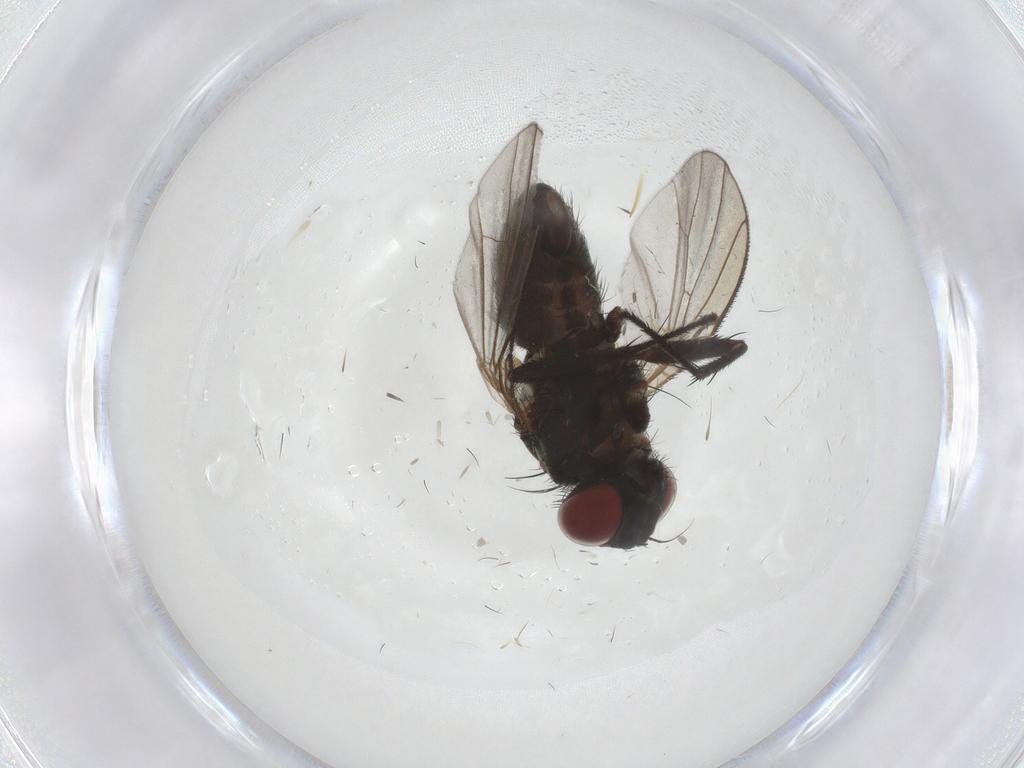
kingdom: Animalia
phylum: Arthropoda
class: Insecta
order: Diptera
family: Muscidae
